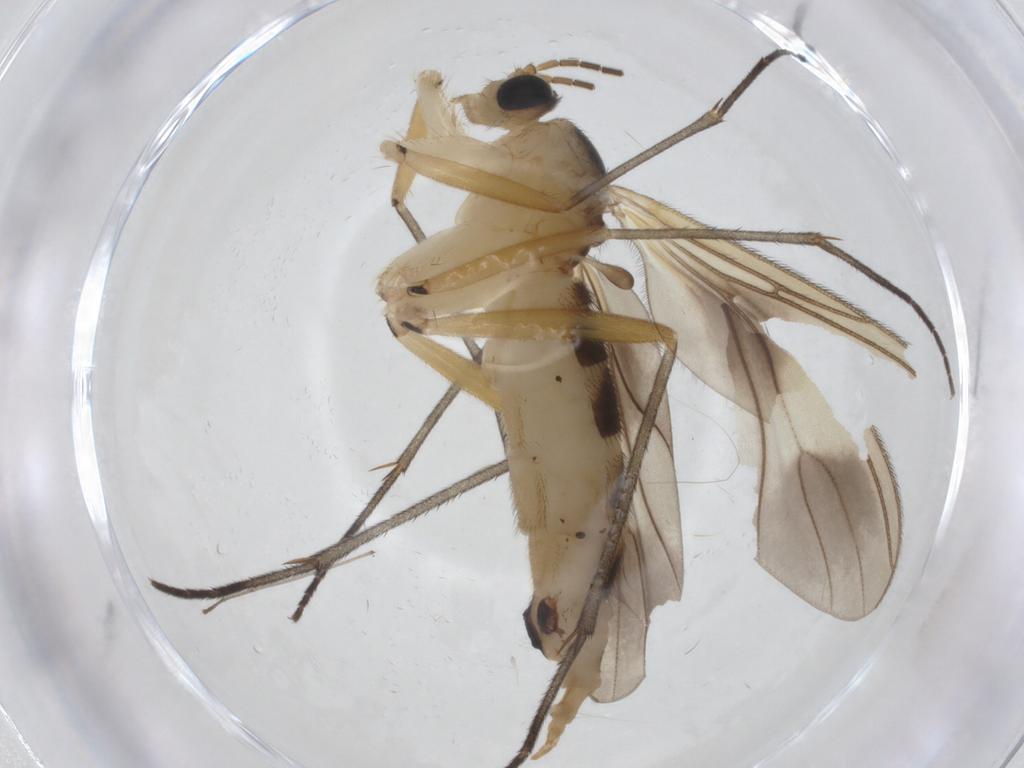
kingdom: Animalia
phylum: Arthropoda
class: Insecta
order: Diptera
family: Sciaridae
